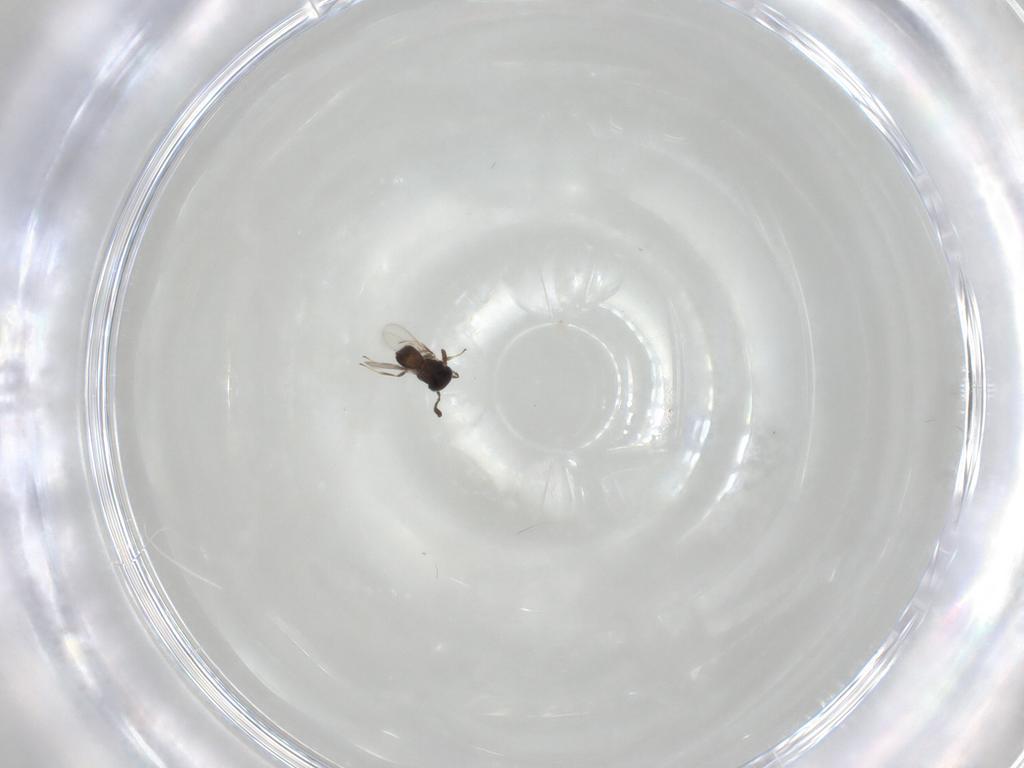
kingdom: Animalia
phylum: Arthropoda
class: Insecta
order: Hymenoptera
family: Scelionidae
